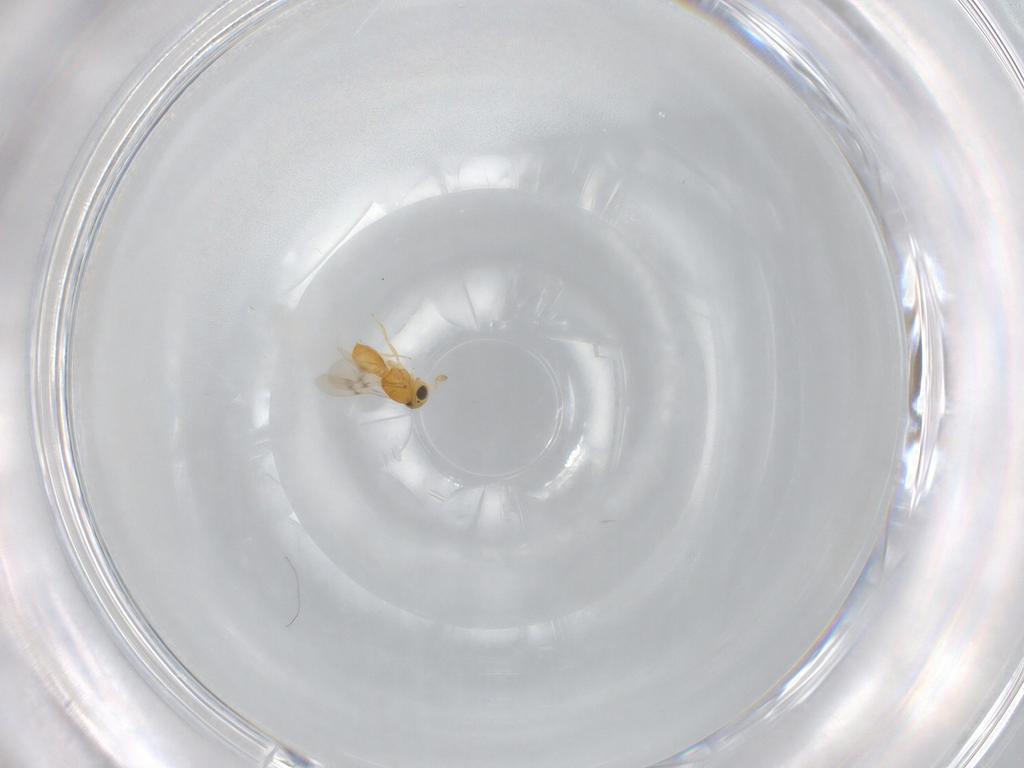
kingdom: Animalia
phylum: Arthropoda
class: Insecta
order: Hymenoptera
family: Scelionidae
